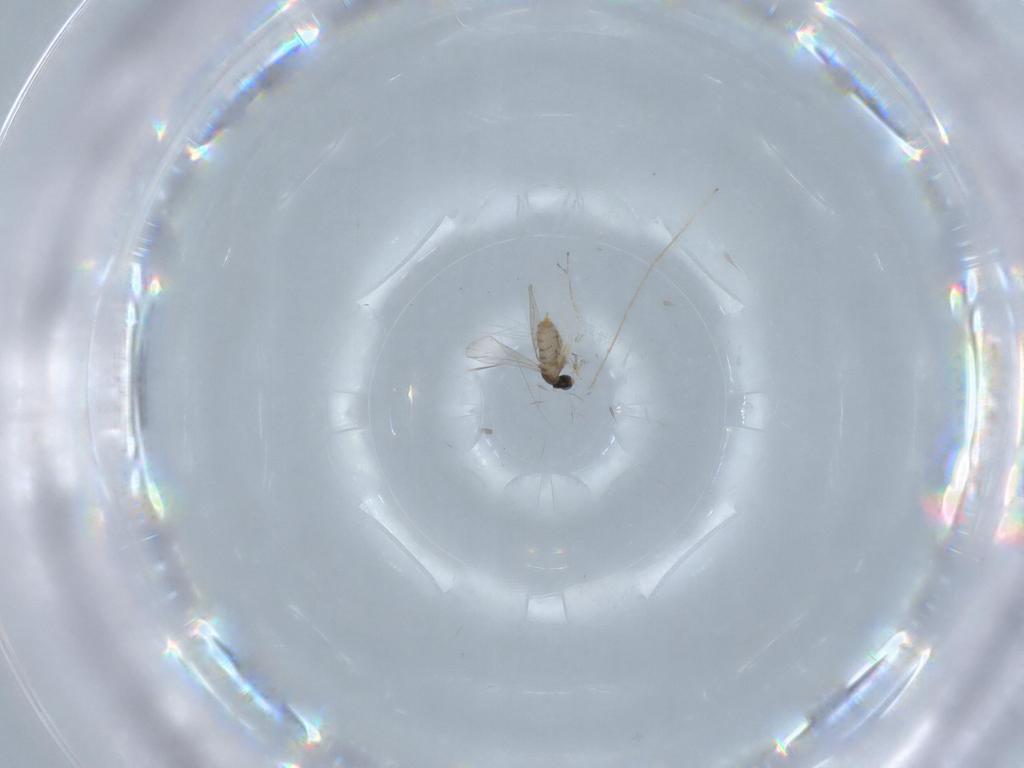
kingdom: Animalia
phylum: Arthropoda
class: Insecta
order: Diptera
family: Cecidomyiidae
